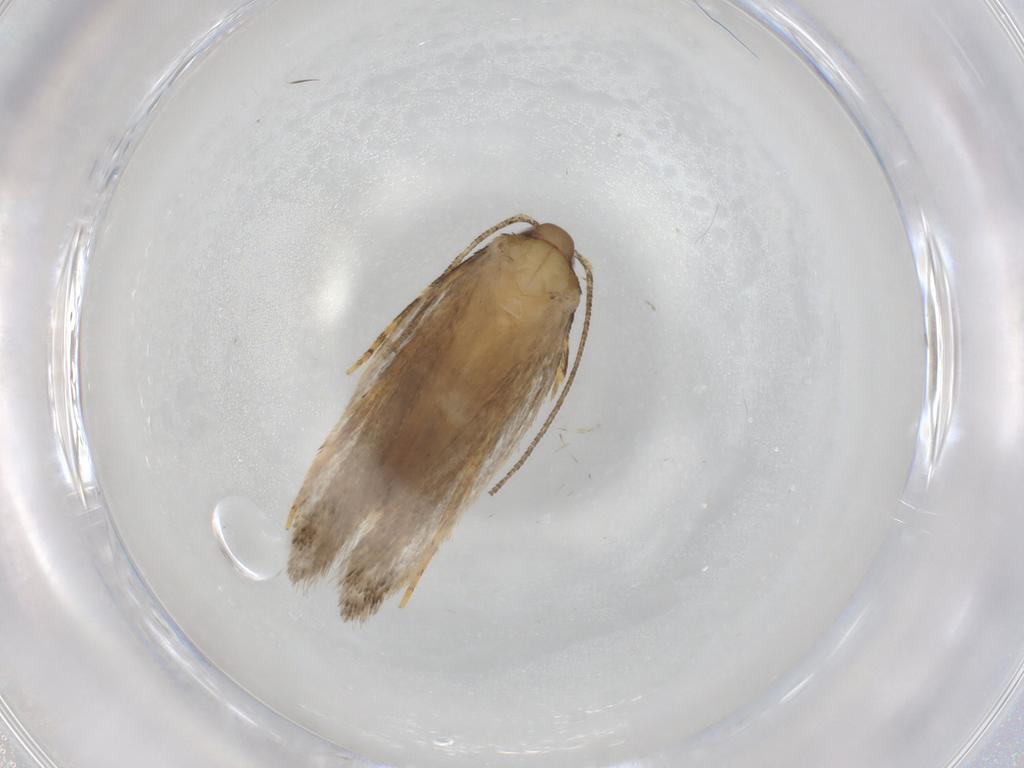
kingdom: Animalia
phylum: Arthropoda
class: Insecta
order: Lepidoptera
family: Autostichidae
